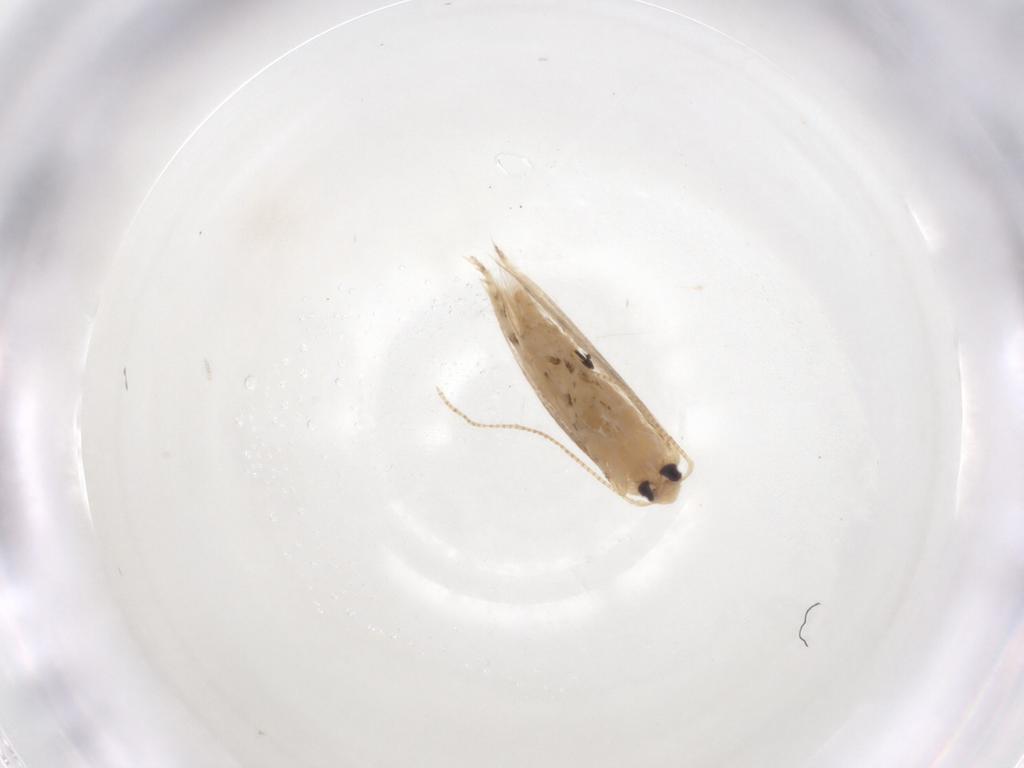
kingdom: Animalia
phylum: Arthropoda
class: Insecta
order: Lepidoptera
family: Gracillariidae
